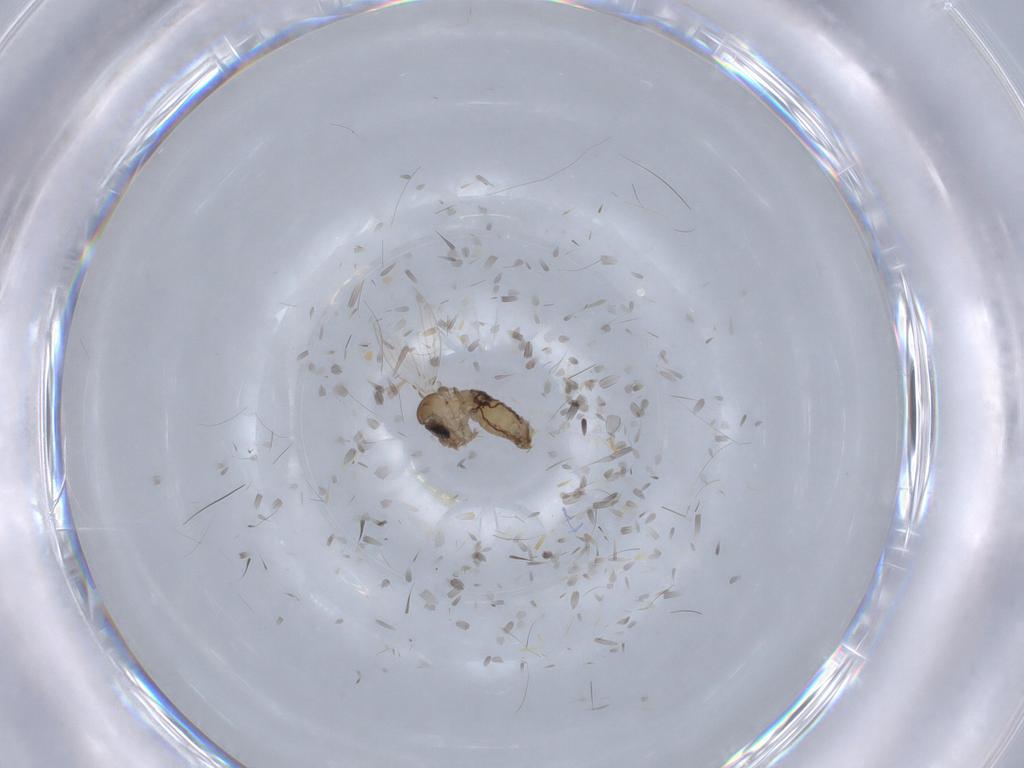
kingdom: Animalia
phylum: Arthropoda
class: Insecta
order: Diptera
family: Psychodidae
